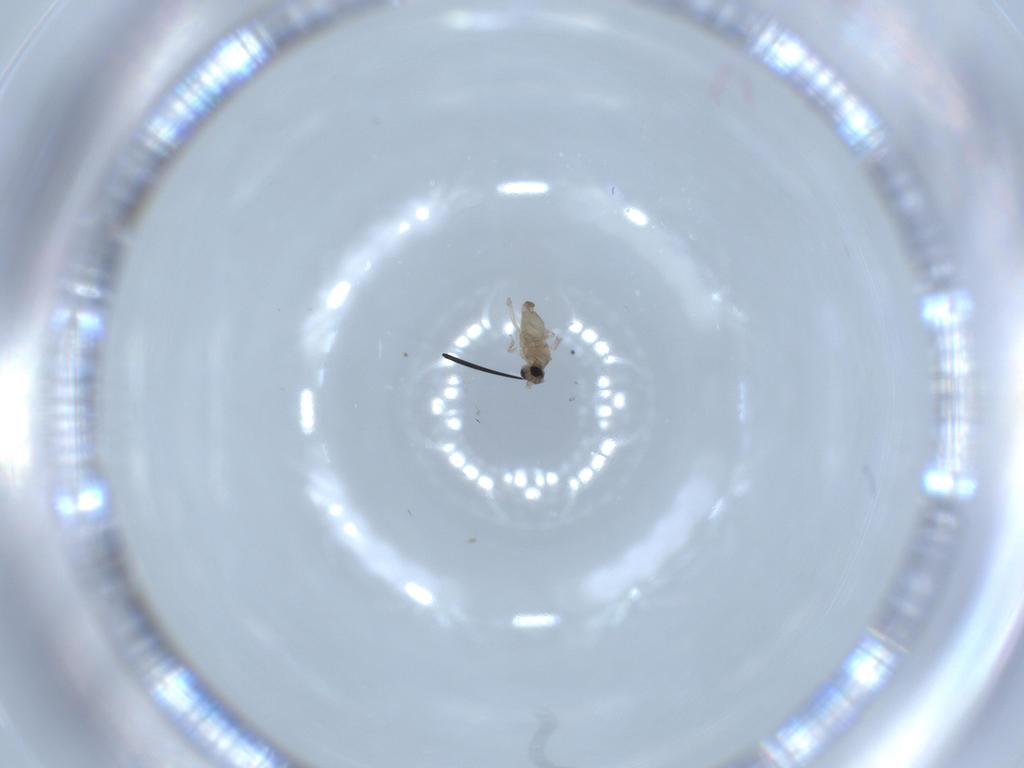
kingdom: Animalia
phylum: Arthropoda
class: Insecta
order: Diptera
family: Cecidomyiidae
